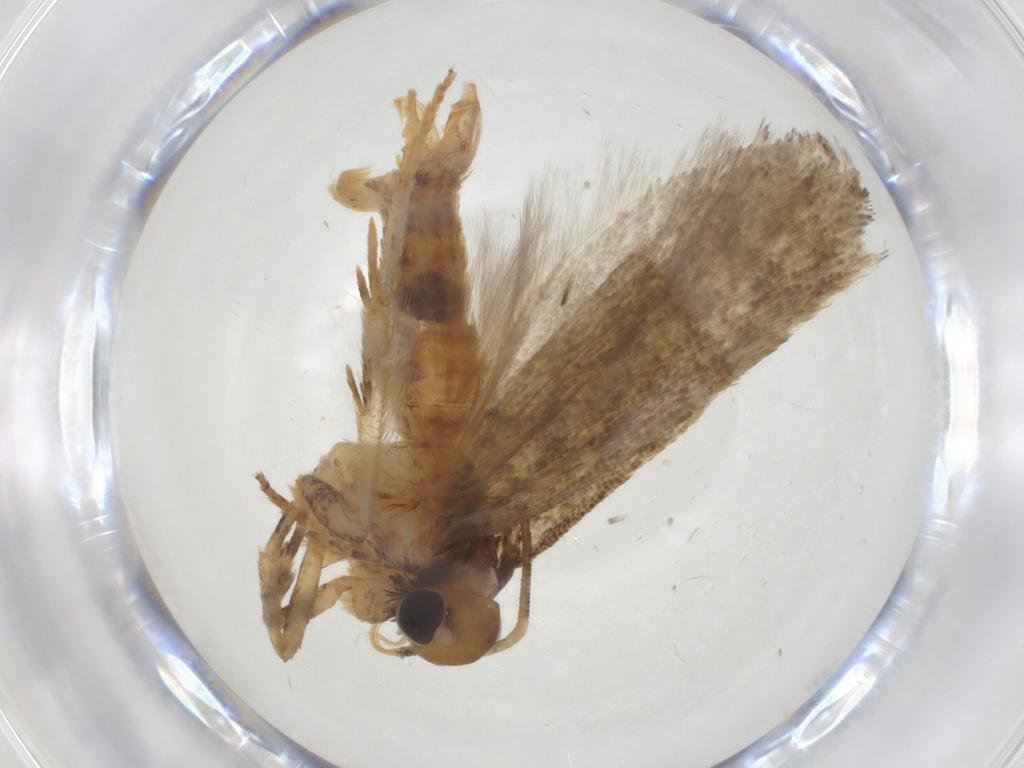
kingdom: Animalia
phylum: Arthropoda
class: Insecta
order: Lepidoptera
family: Gelechiidae
